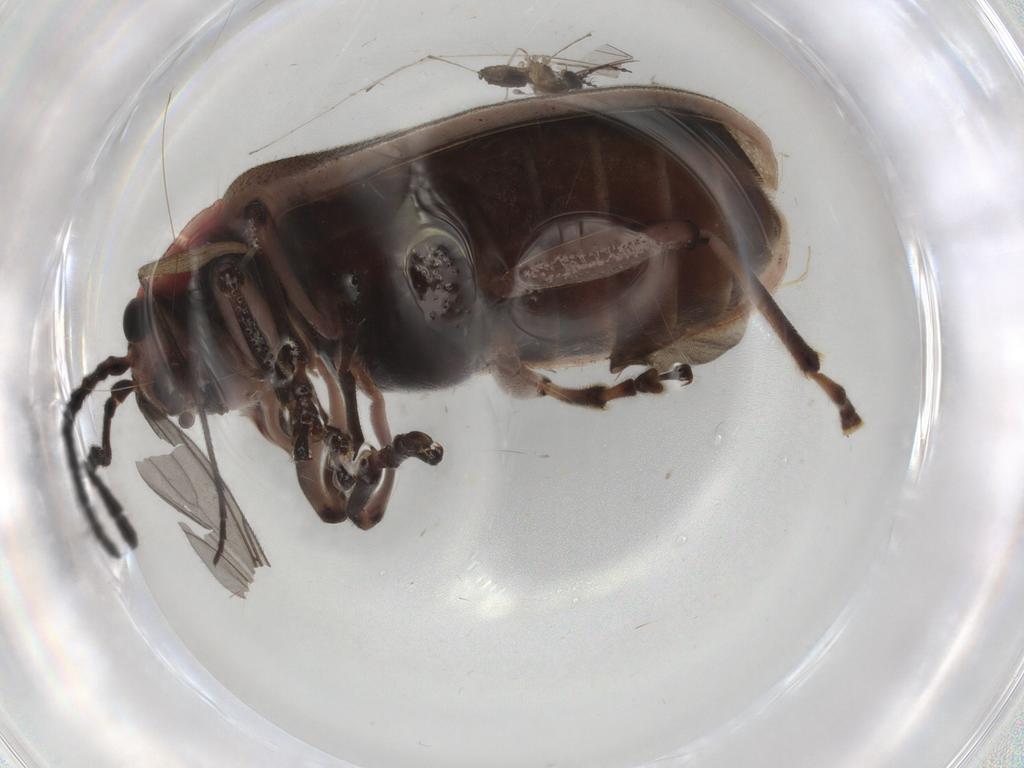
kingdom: Animalia
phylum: Arthropoda
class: Insecta
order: Coleoptera
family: Chrysomelidae
